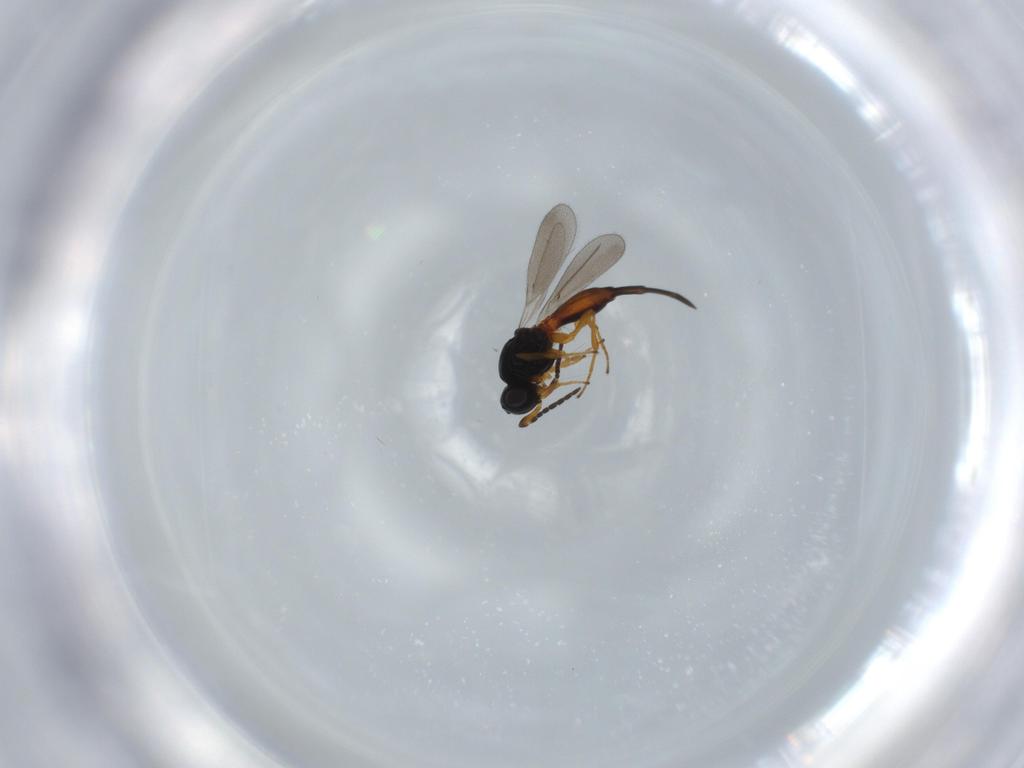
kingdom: Animalia
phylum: Arthropoda
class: Insecta
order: Hymenoptera
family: Platygastridae
